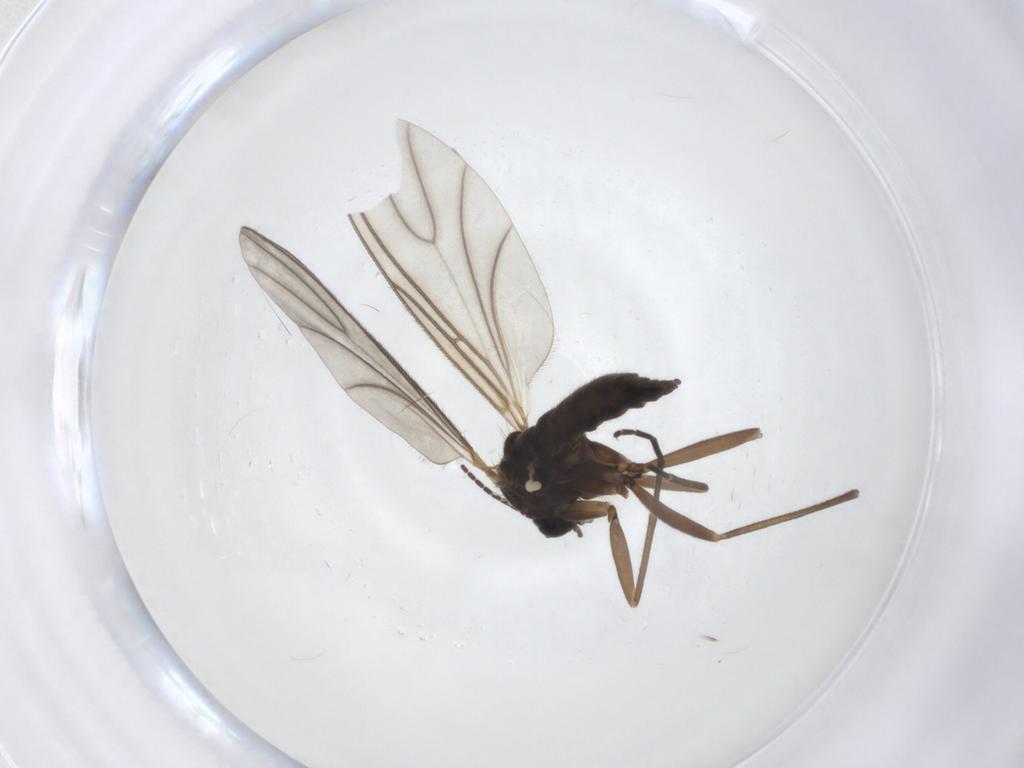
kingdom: Animalia
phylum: Arthropoda
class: Insecta
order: Diptera
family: Sciaridae
